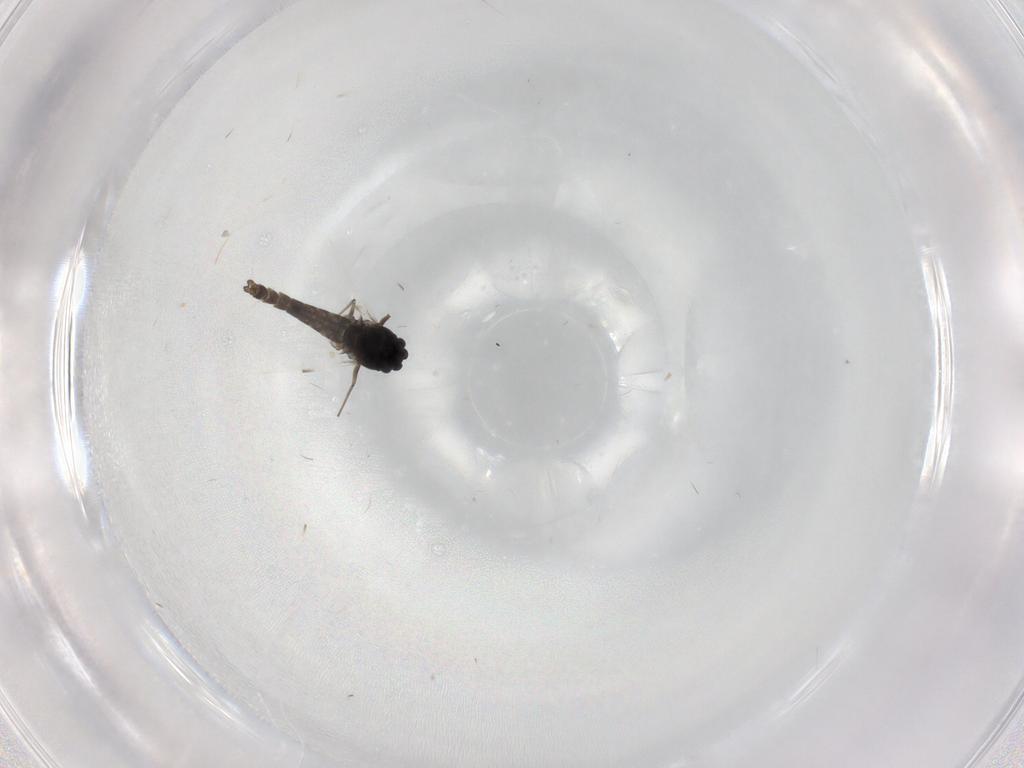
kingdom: Animalia
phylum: Arthropoda
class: Insecta
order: Diptera
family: Chironomidae
